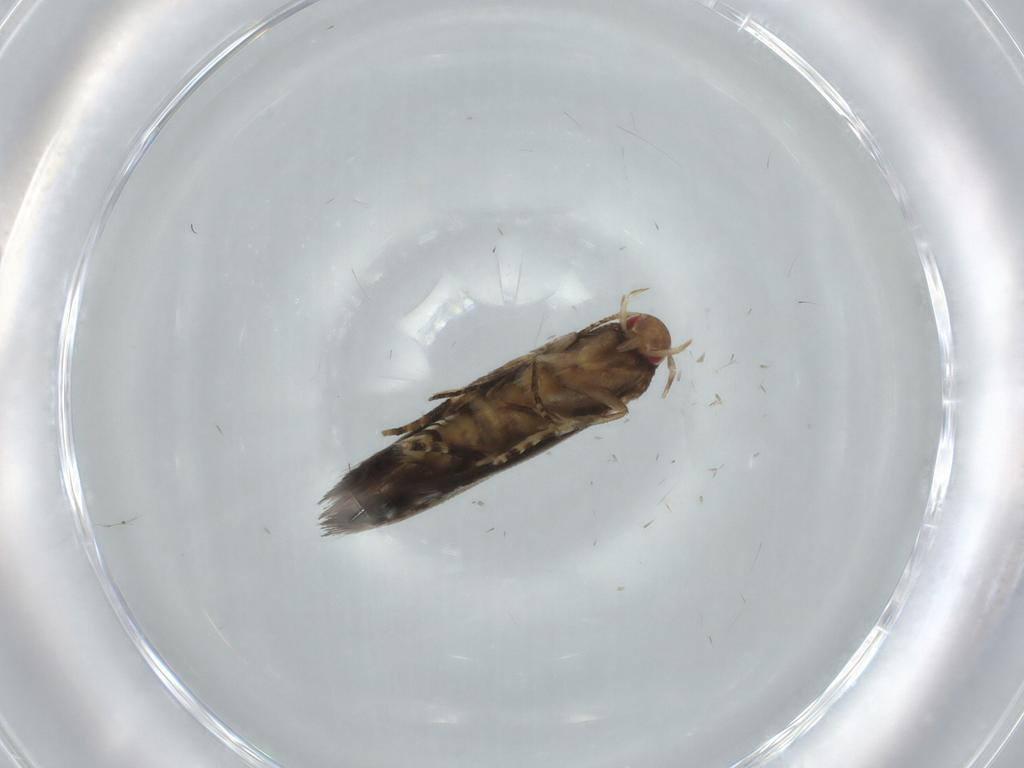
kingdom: Animalia
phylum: Arthropoda
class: Insecta
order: Lepidoptera
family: Momphidae
